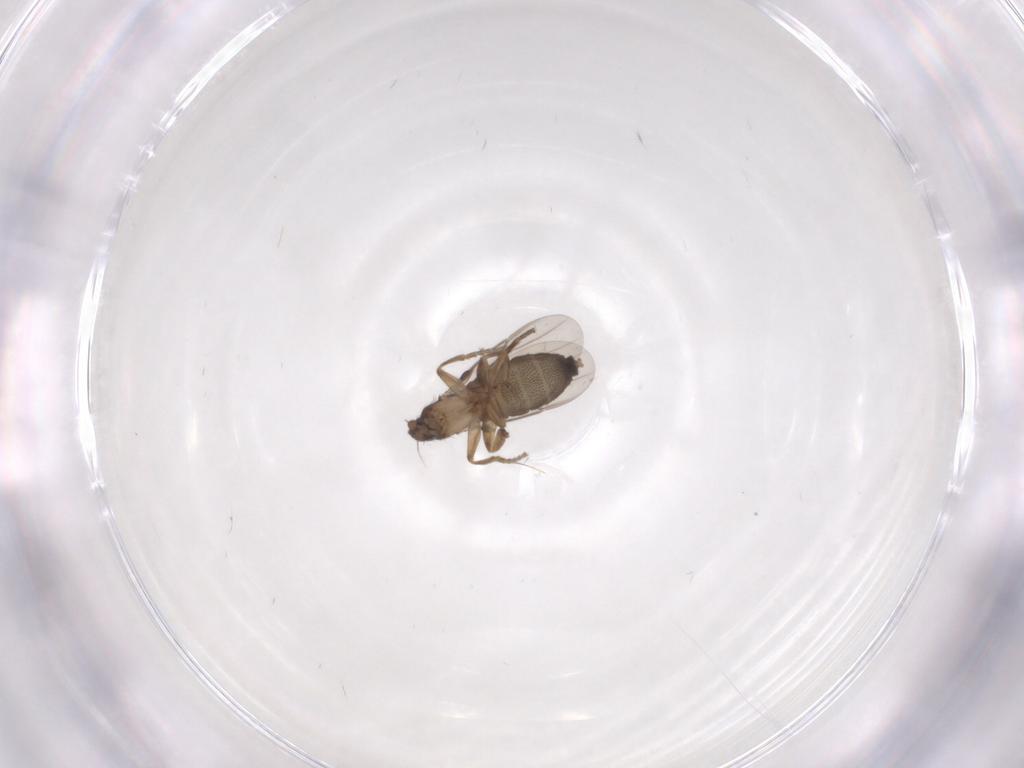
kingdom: Animalia
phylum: Arthropoda
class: Insecta
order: Diptera
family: Phoridae
